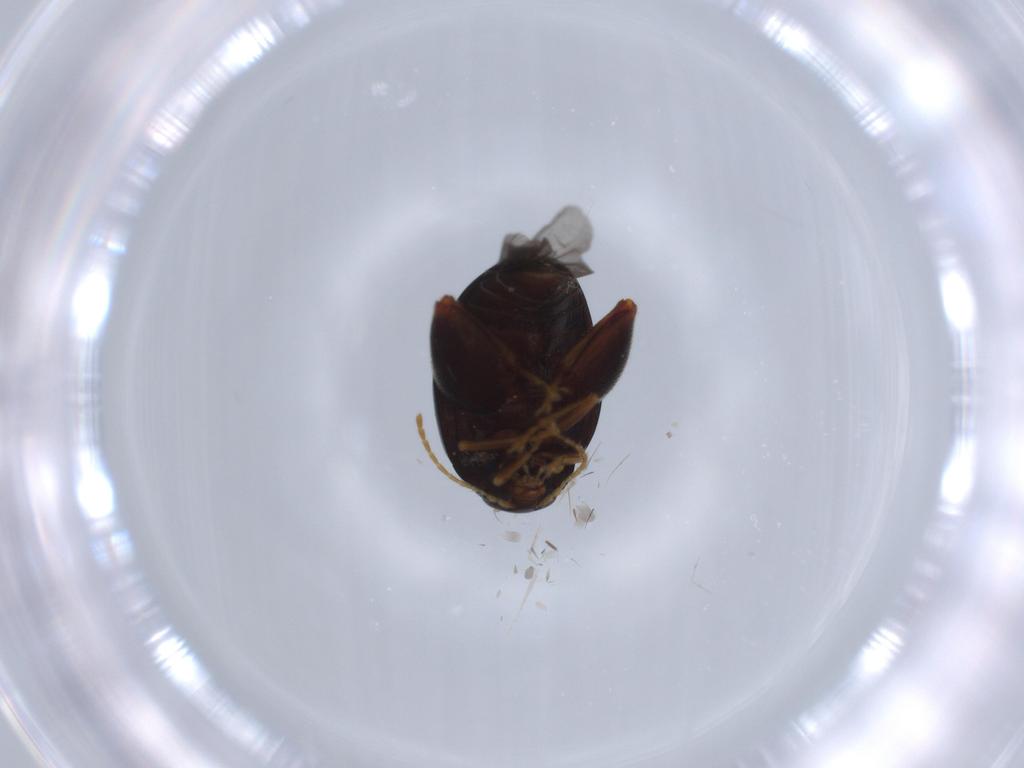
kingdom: Animalia
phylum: Arthropoda
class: Insecta
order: Coleoptera
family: Chrysomelidae
